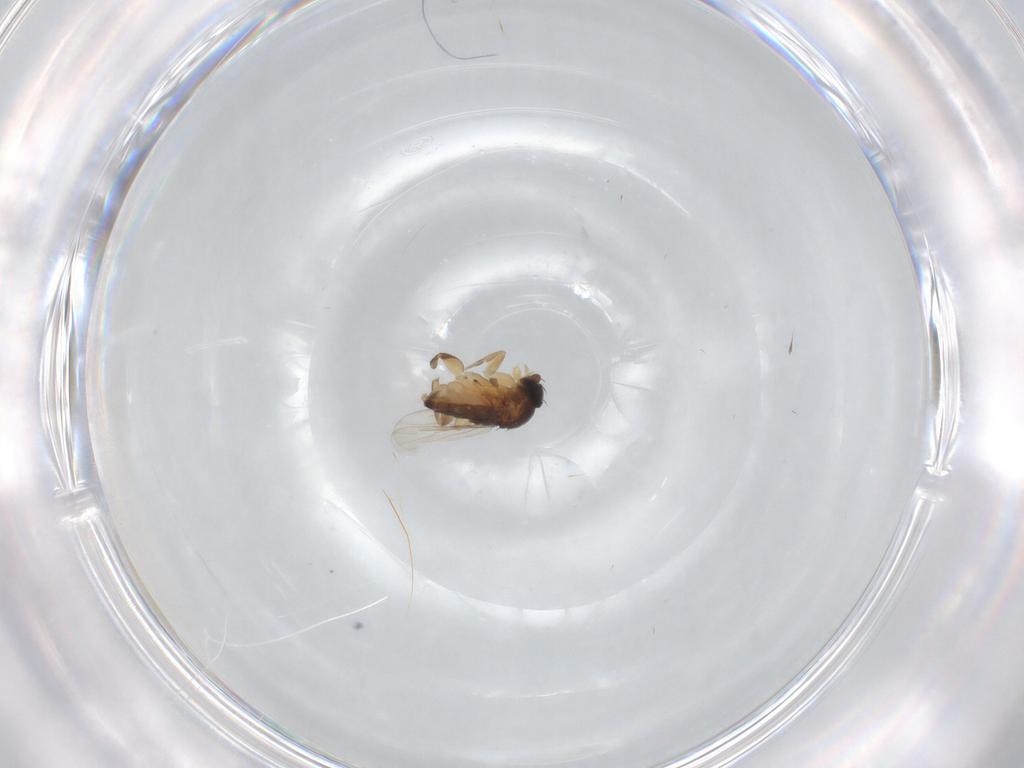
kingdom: Animalia
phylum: Arthropoda
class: Insecta
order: Diptera
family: Phoridae
